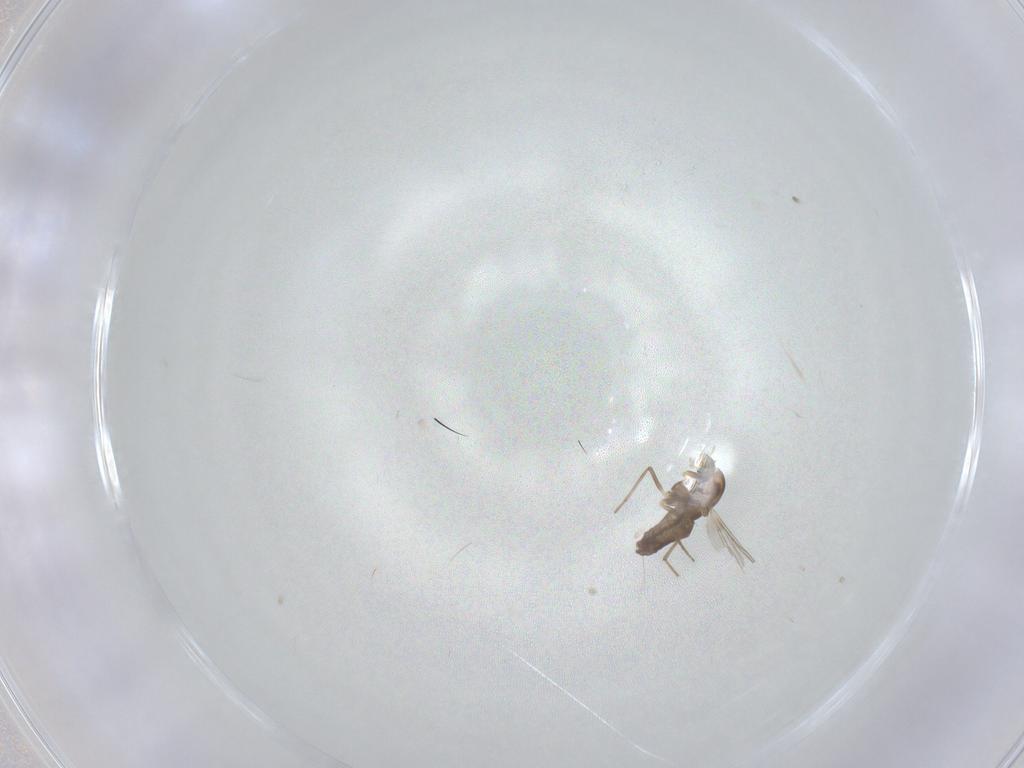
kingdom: Animalia
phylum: Arthropoda
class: Insecta
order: Diptera
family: Chironomidae
